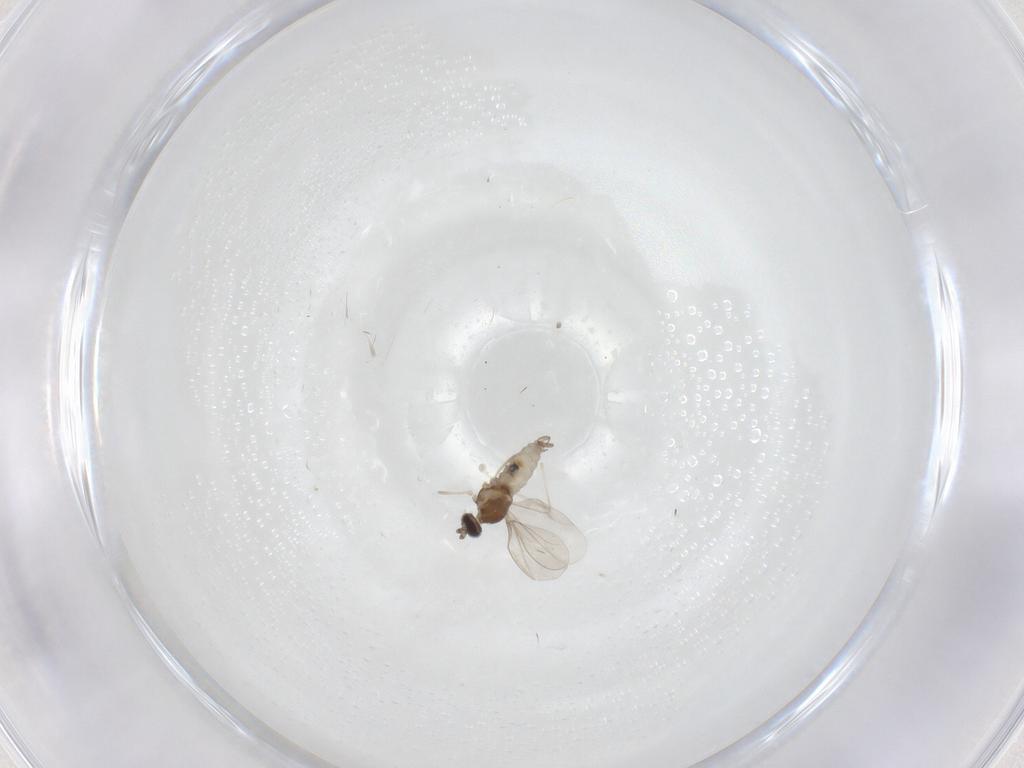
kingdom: Animalia
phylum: Arthropoda
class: Insecta
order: Diptera
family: Cecidomyiidae
